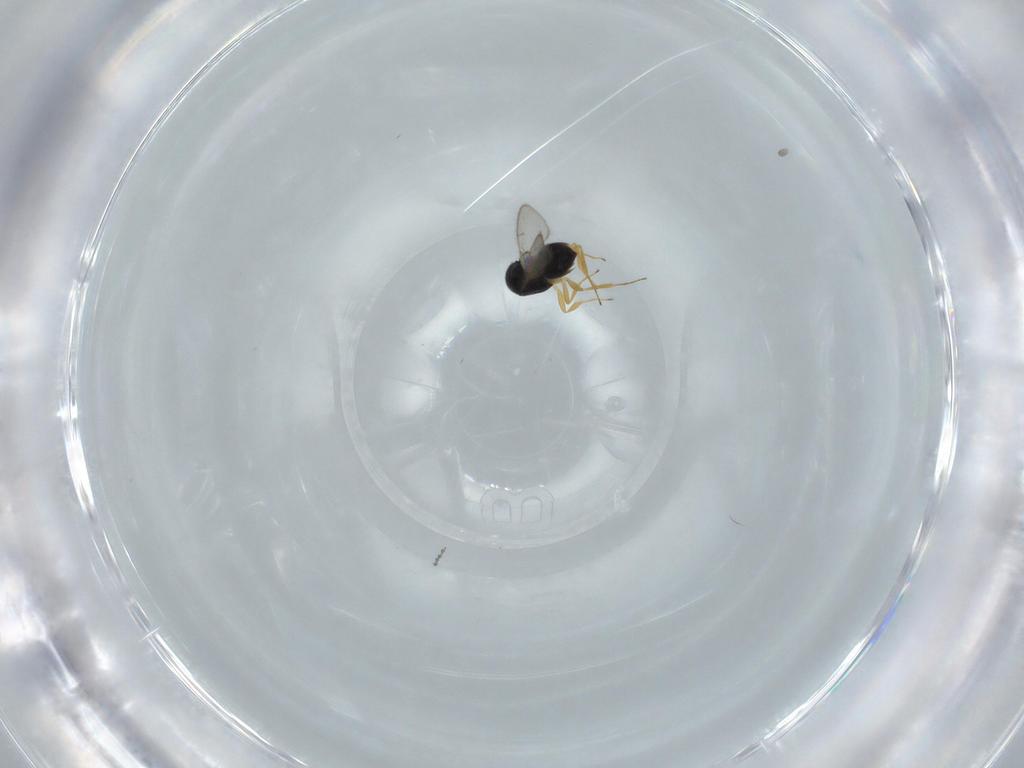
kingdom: Animalia
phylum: Arthropoda
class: Insecta
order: Hymenoptera
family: Scelionidae
